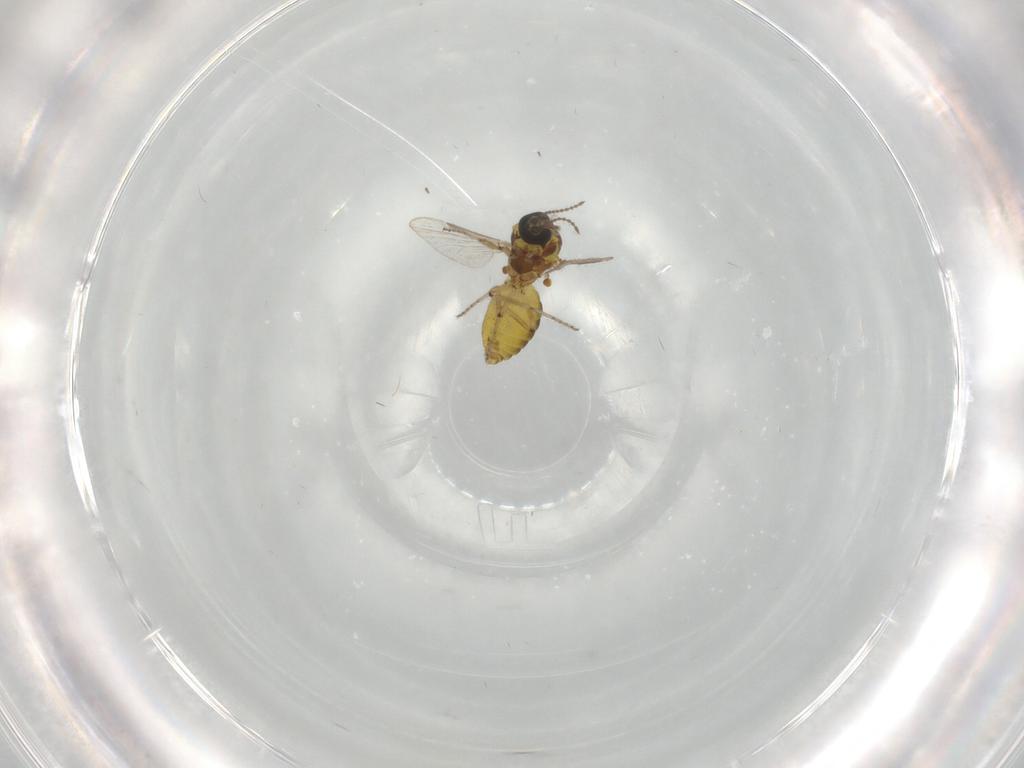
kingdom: Animalia
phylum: Arthropoda
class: Insecta
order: Diptera
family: Ceratopogonidae
